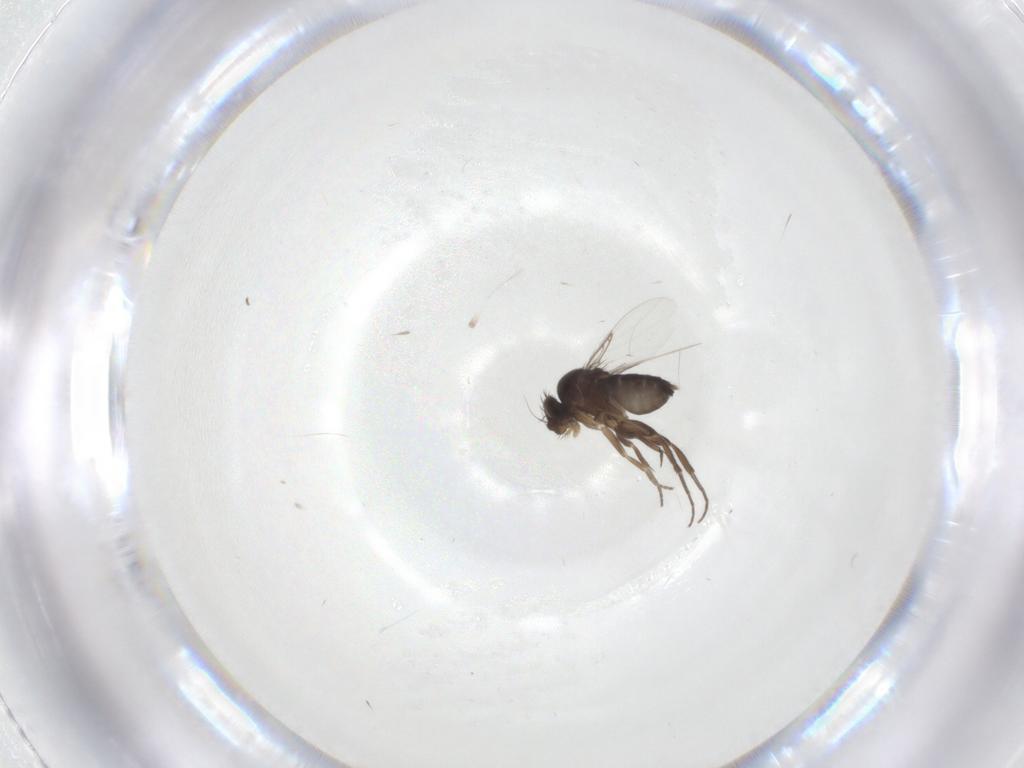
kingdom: Animalia
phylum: Arthropoda
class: Insecta
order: Diptera
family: Phoridae
